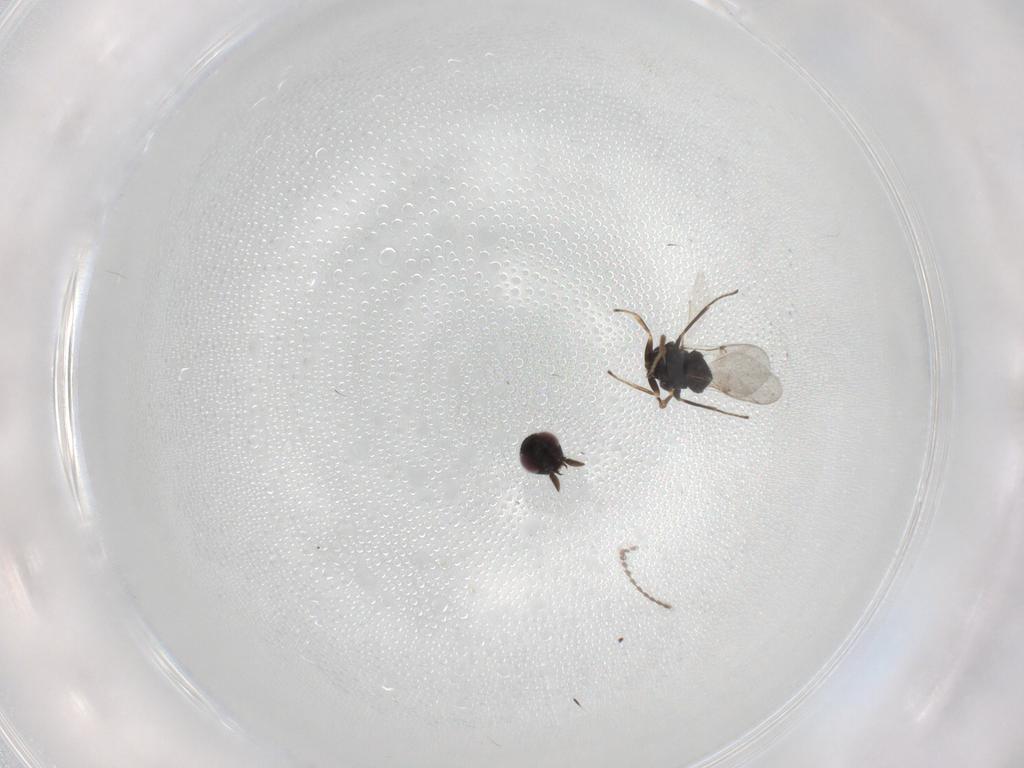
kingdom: Animalia
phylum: Arthropoda
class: Insecta
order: Hymenoptera
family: Encyrtidae
